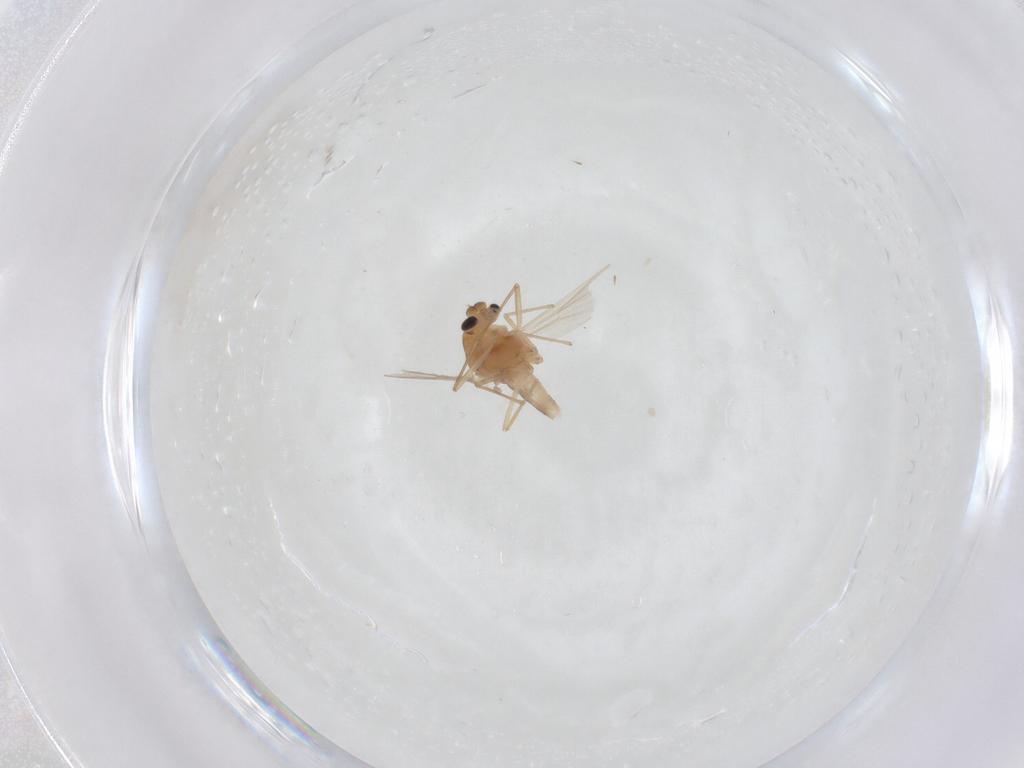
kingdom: Animalia
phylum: Arthropoda
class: Insecta
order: Diptera
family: Chironomidae
